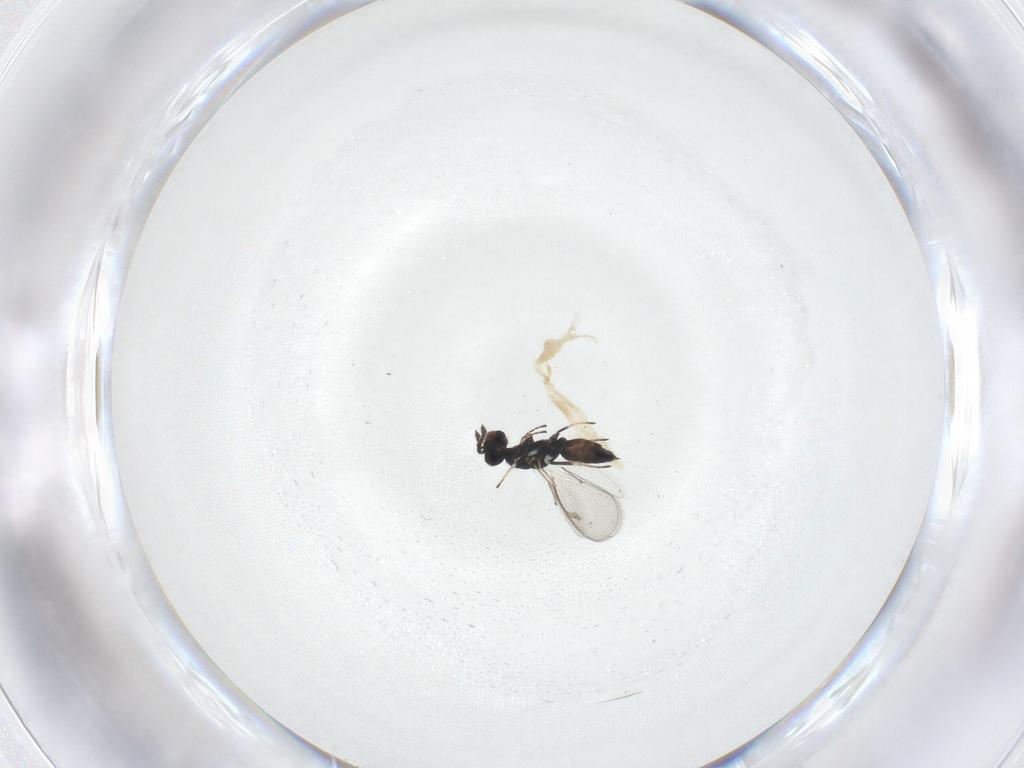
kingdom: Animalia
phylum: Arthropoda
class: Insecta
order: Hymenoptera
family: Eulophidae
